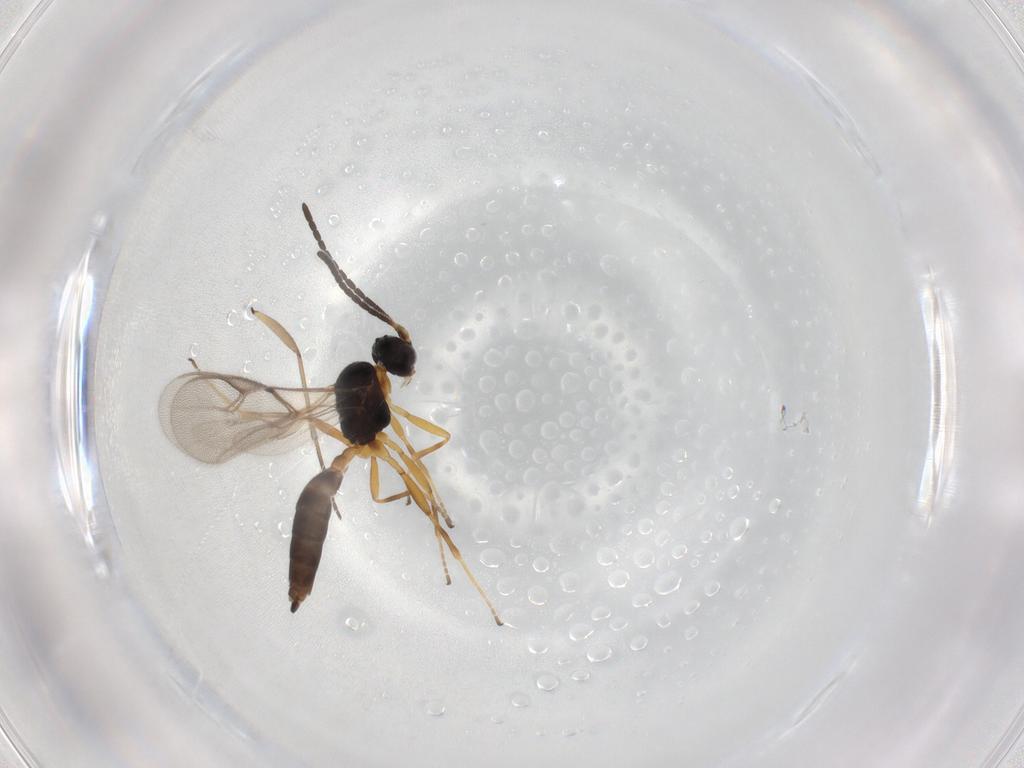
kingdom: Animalia
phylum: Arthropoda
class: Insecta
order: Hymenoptera
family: Braconidae
